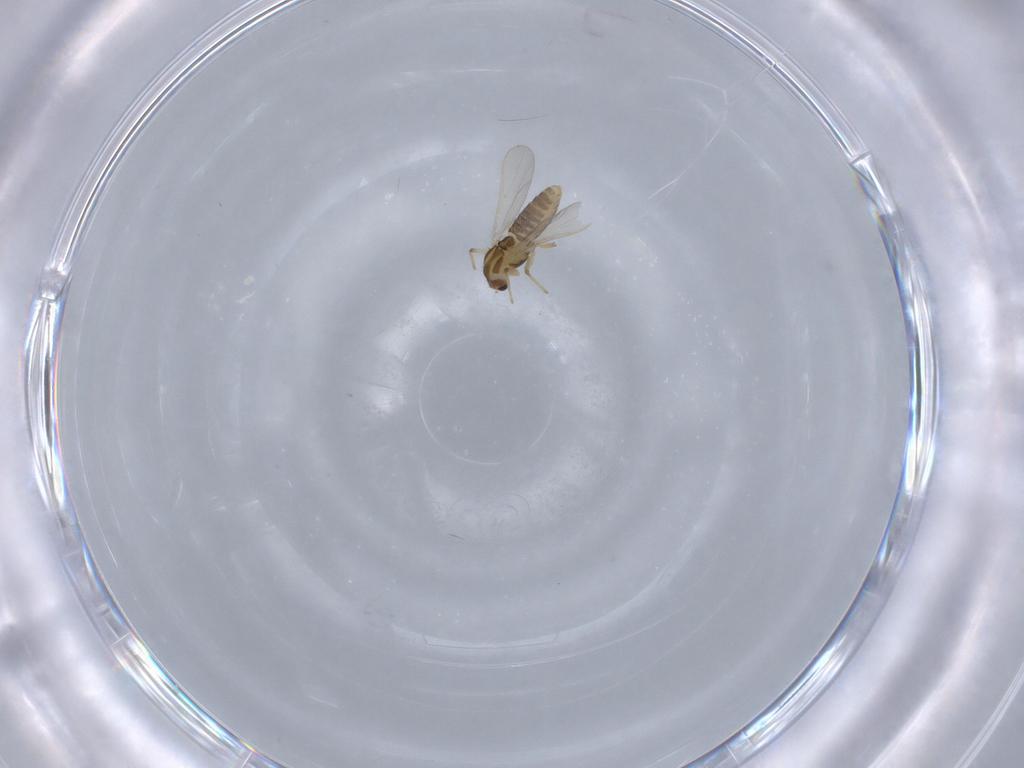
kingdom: Animalia
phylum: Arthropoda
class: Insecta
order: Diptera
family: Chironomidae
